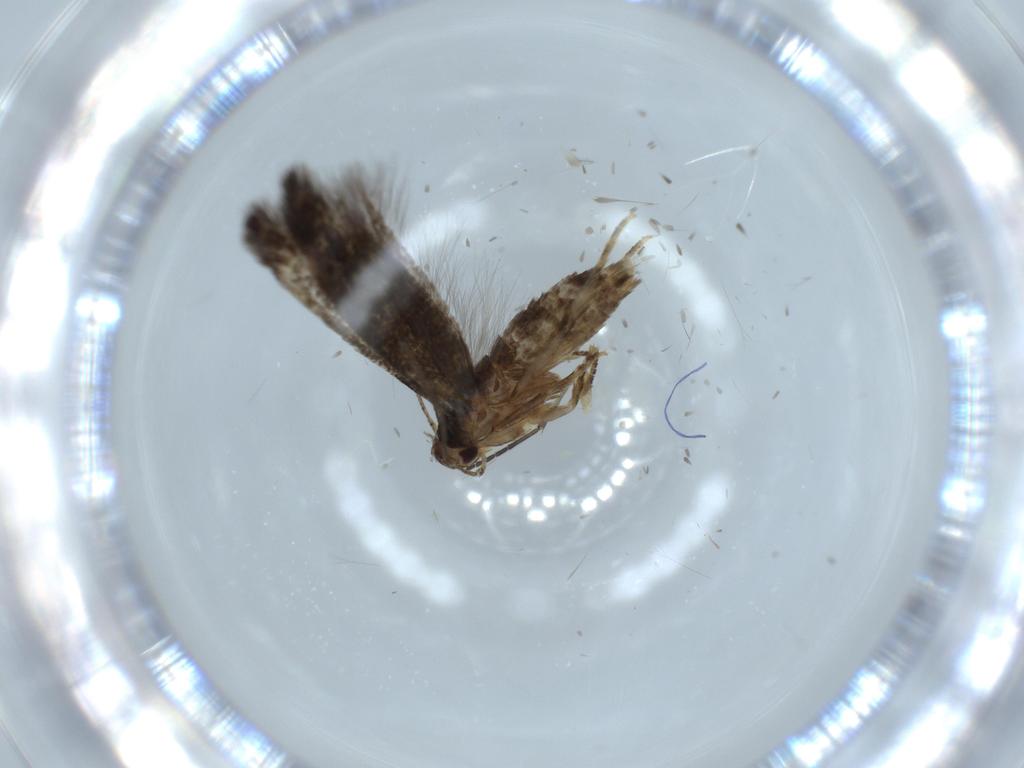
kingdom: Animalia
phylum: Arthropoda
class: Insecta
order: Lepidoptera
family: Gelechiidae
